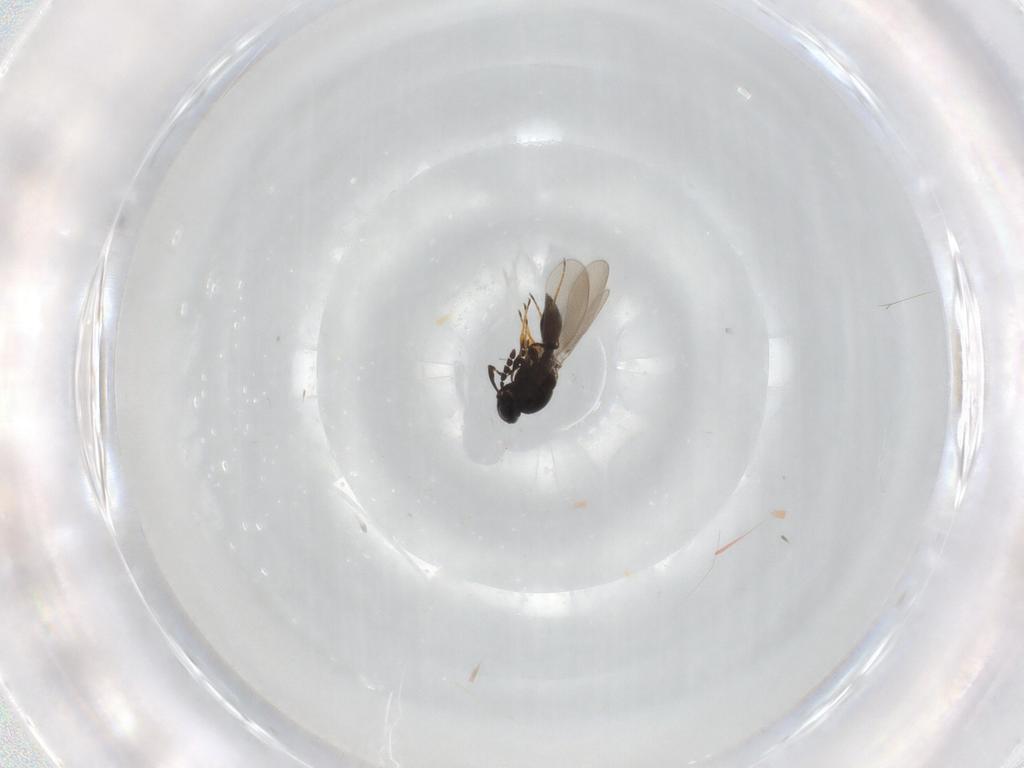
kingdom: Animalia
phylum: Arthropoda
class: Insecta
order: Hymenoptera
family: Platygastridae
